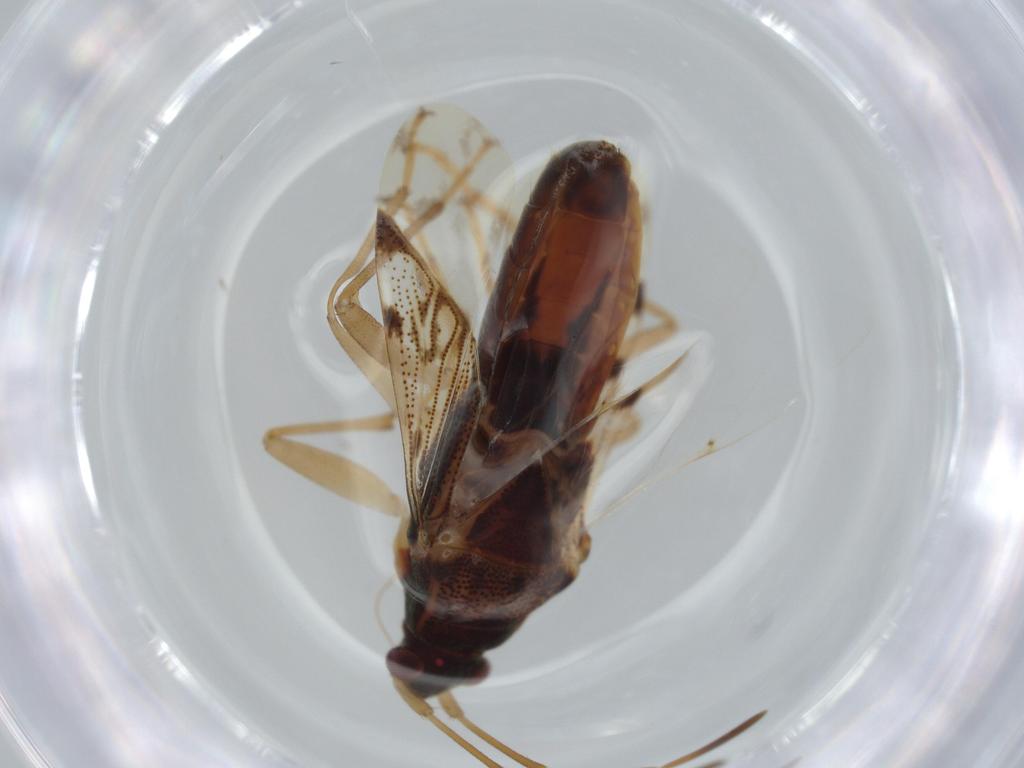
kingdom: Animalia
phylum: Arthropoda
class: Insecta
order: Hemiptera
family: Rhyparochromidae
